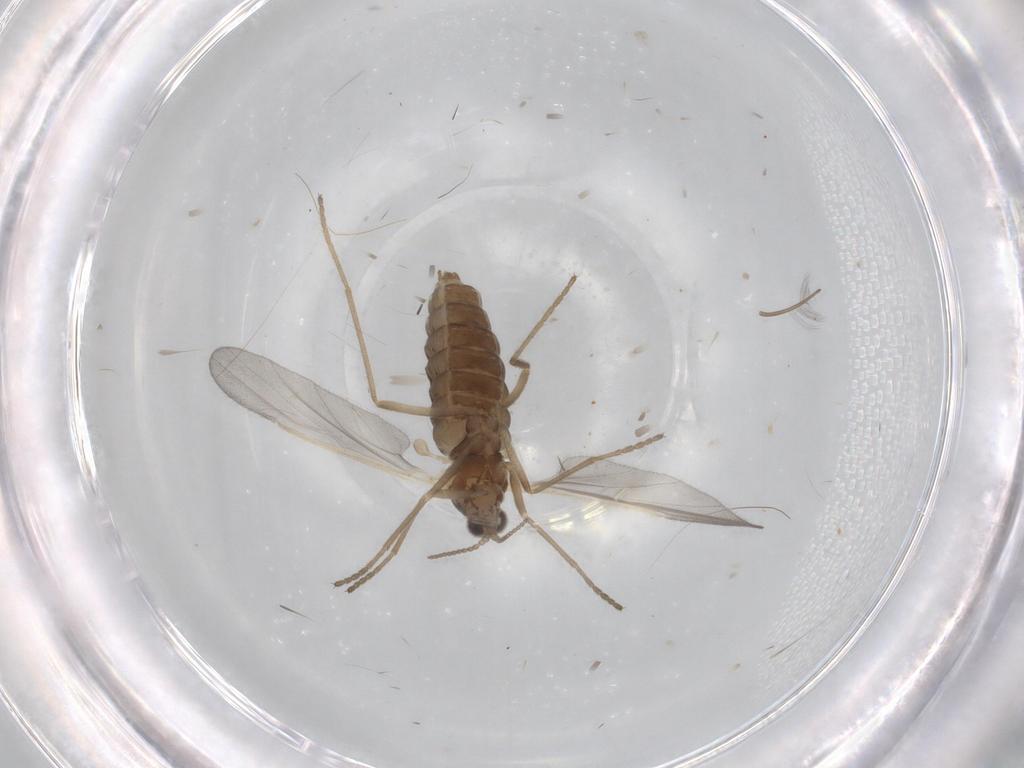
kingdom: Animalia
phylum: Arthropoda
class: Insecta
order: Diptera
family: Cecidomyiidae
